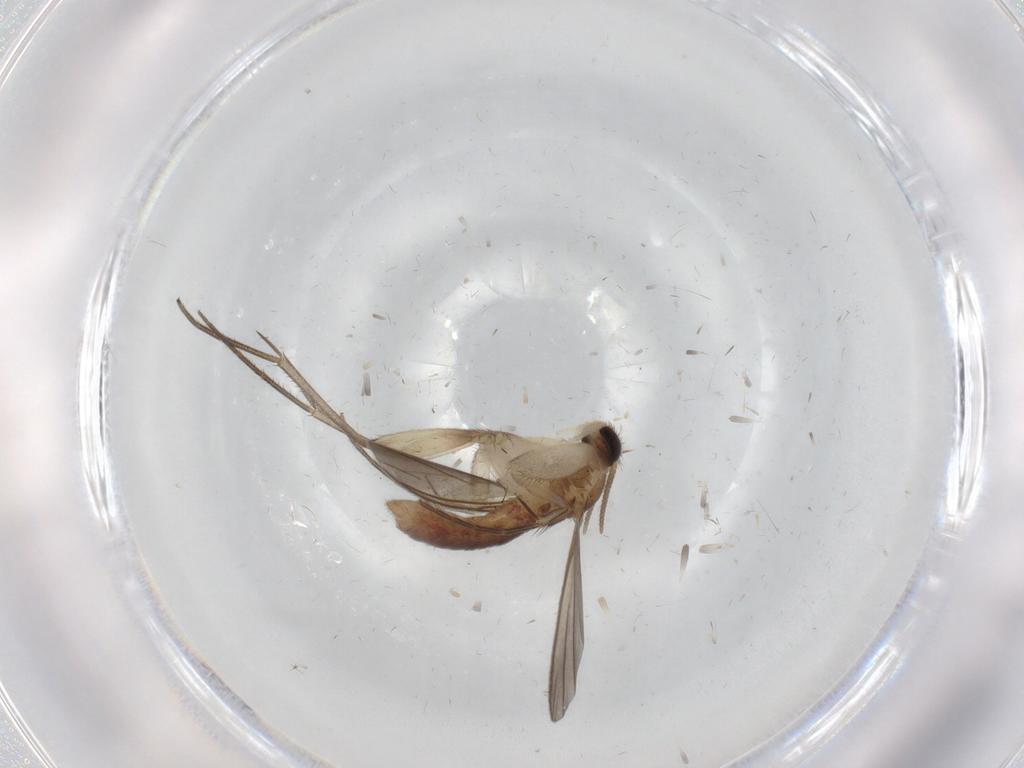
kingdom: Animalia
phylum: Arthropoda
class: Insecta
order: Diptera
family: Mycetophilidae
